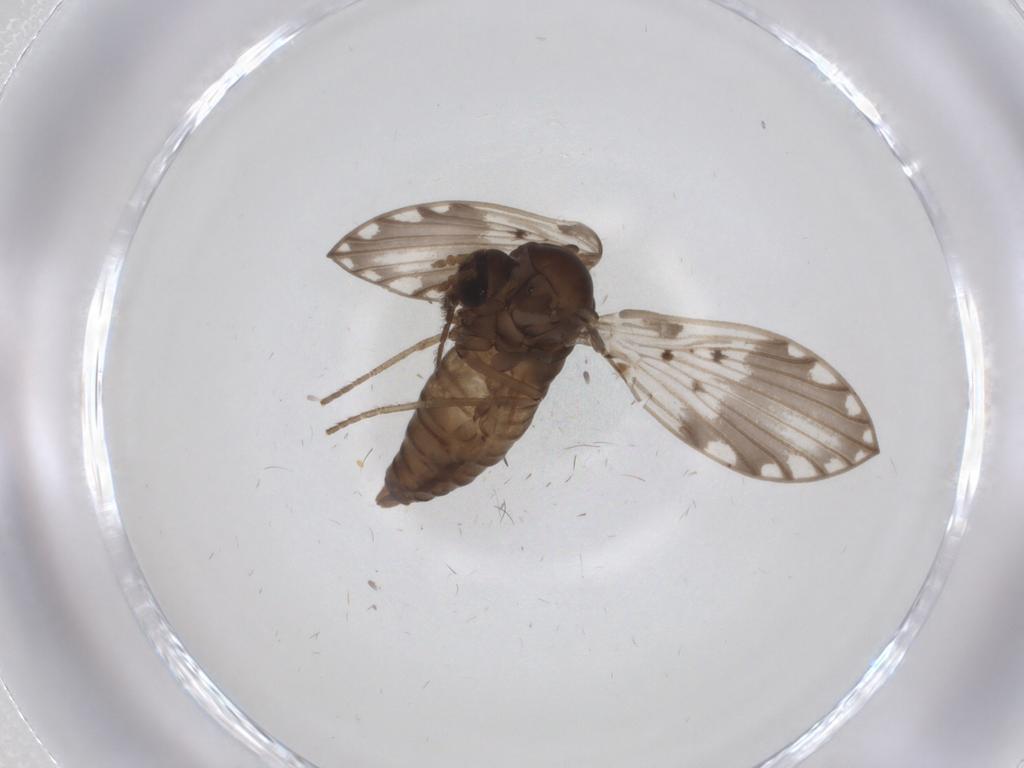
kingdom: Animalia
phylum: Arthropoda
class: Insecta
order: Diptera
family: Psychodidae
